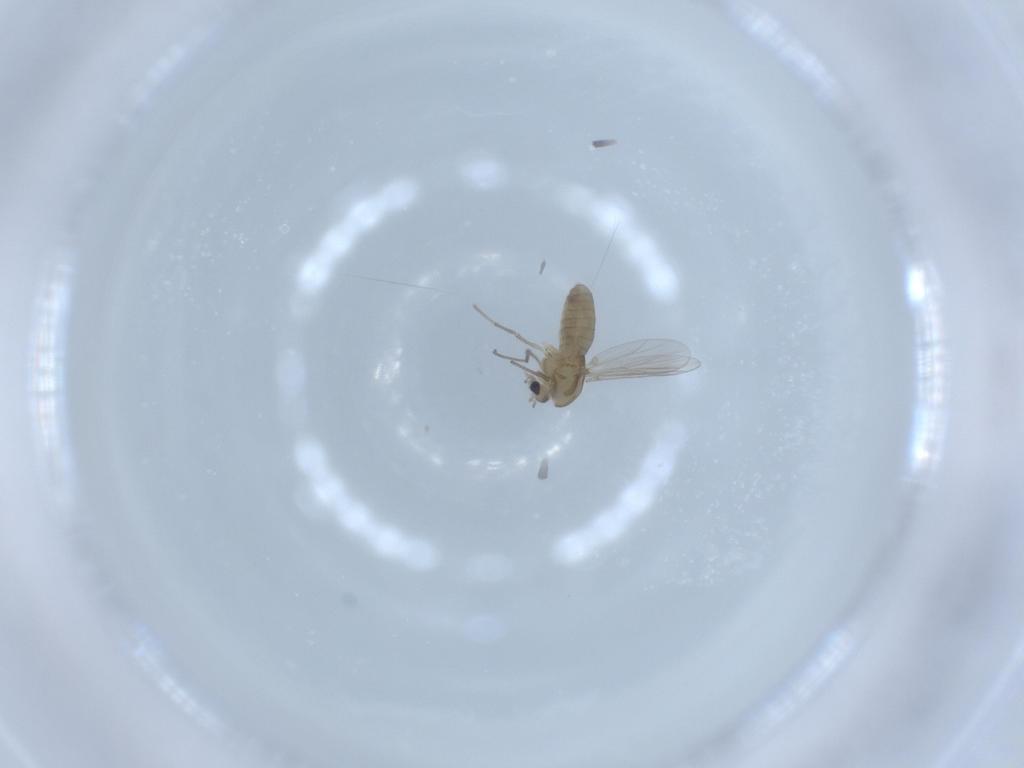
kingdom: Animalia
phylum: Arthropoda
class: Insecta
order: Diptera
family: Chironomidae
